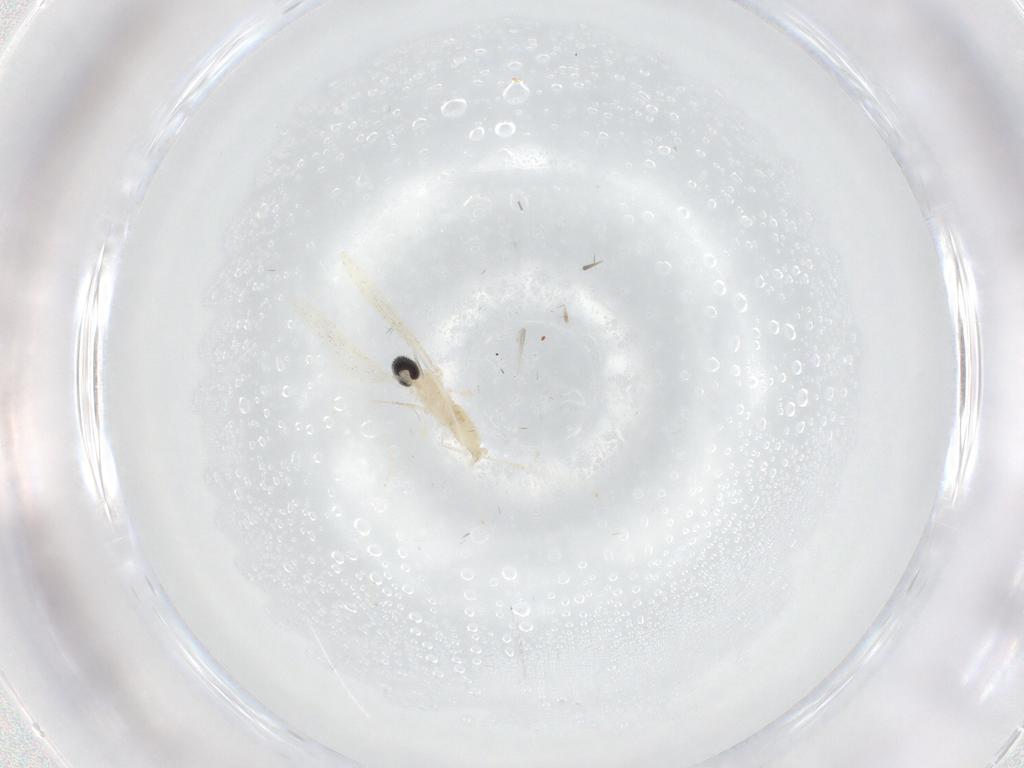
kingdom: Animalia
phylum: Arthropoda
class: Insecta
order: Diptera
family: Cecidomyiidae
